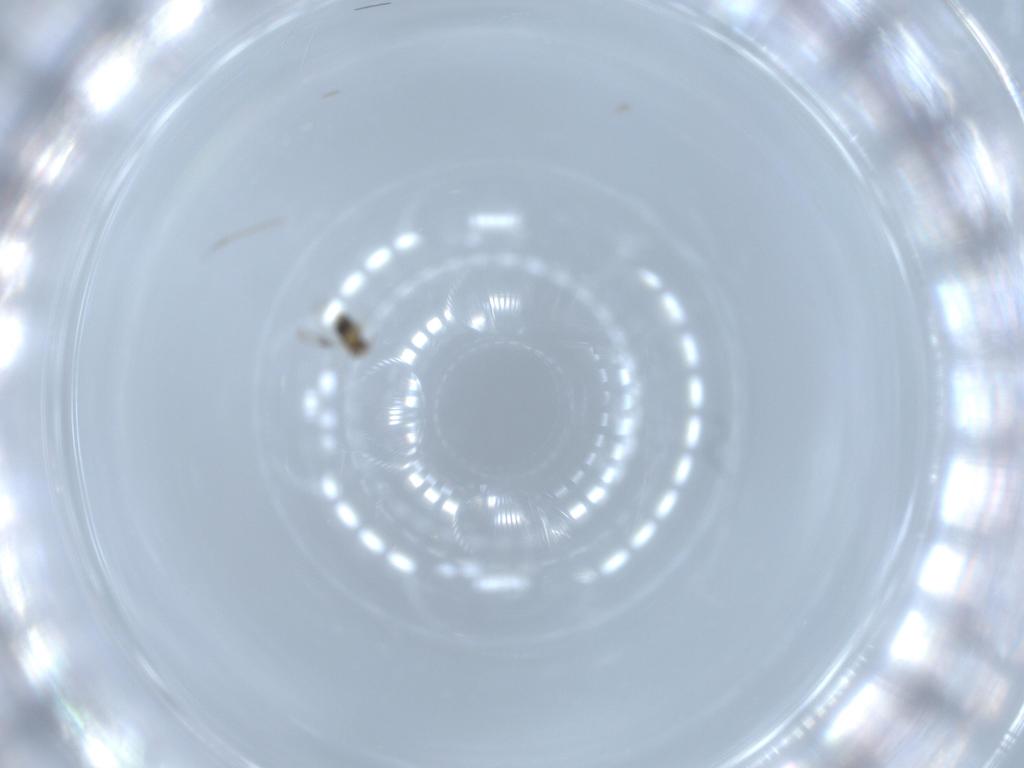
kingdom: Animalia
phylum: Arthropoda
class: Insecta
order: Hymenoptera
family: Aphelinidae
